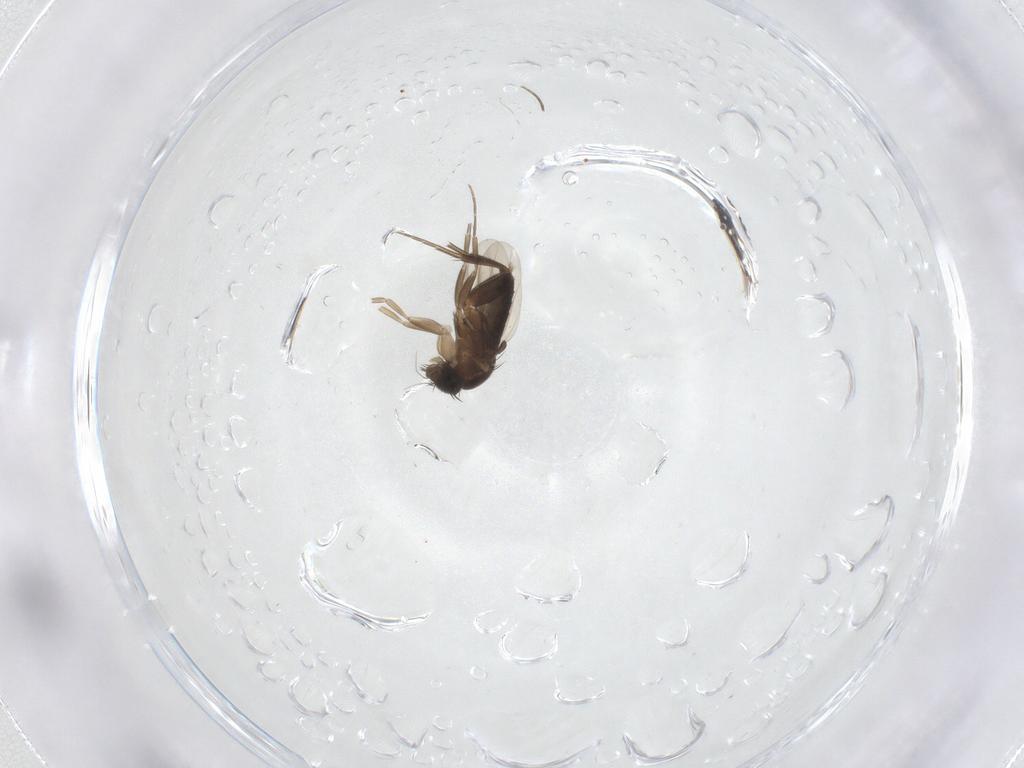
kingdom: Animalia
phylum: Arthropoda
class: Insecta
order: Diptera
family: Phoridae
